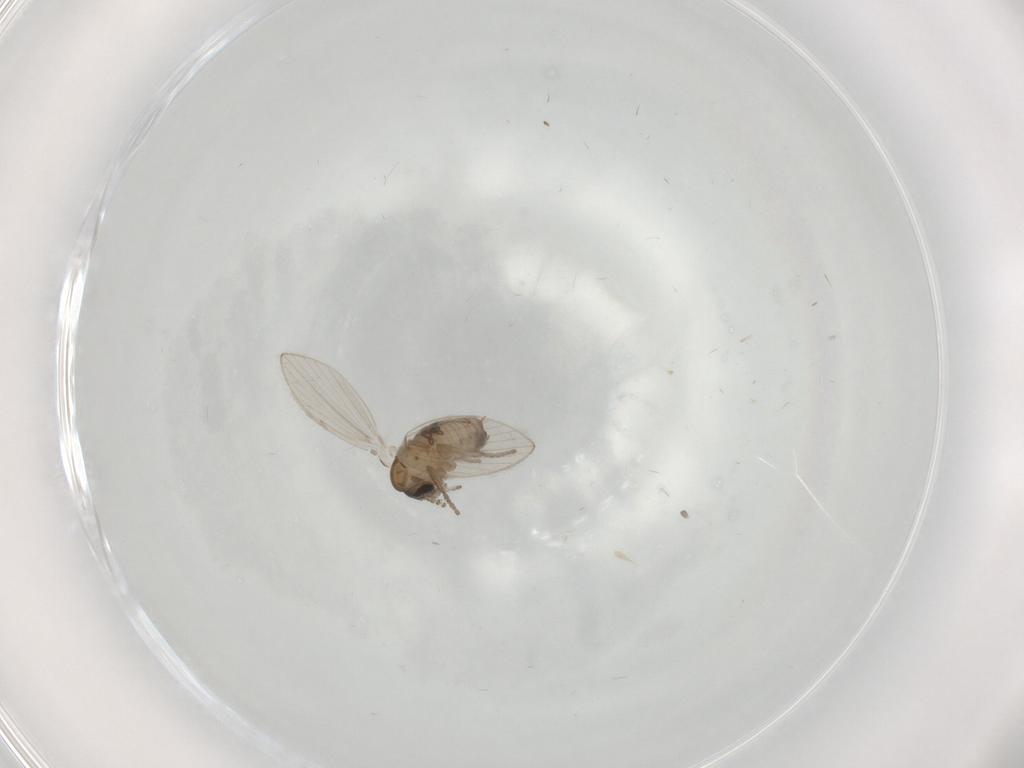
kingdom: Animalia
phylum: Arthropoda
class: Insecta
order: Diptera
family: Psychodidae
